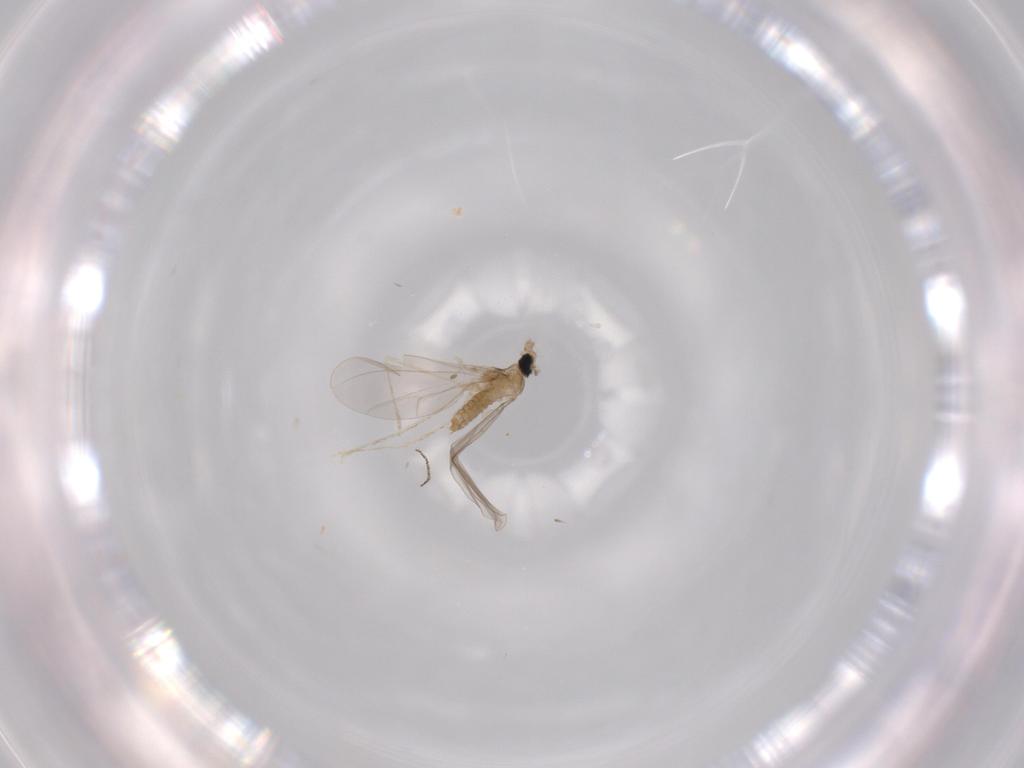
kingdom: Animalia
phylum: Arthropoda
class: Insecta
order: Diptera
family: Cecidomyiidae
